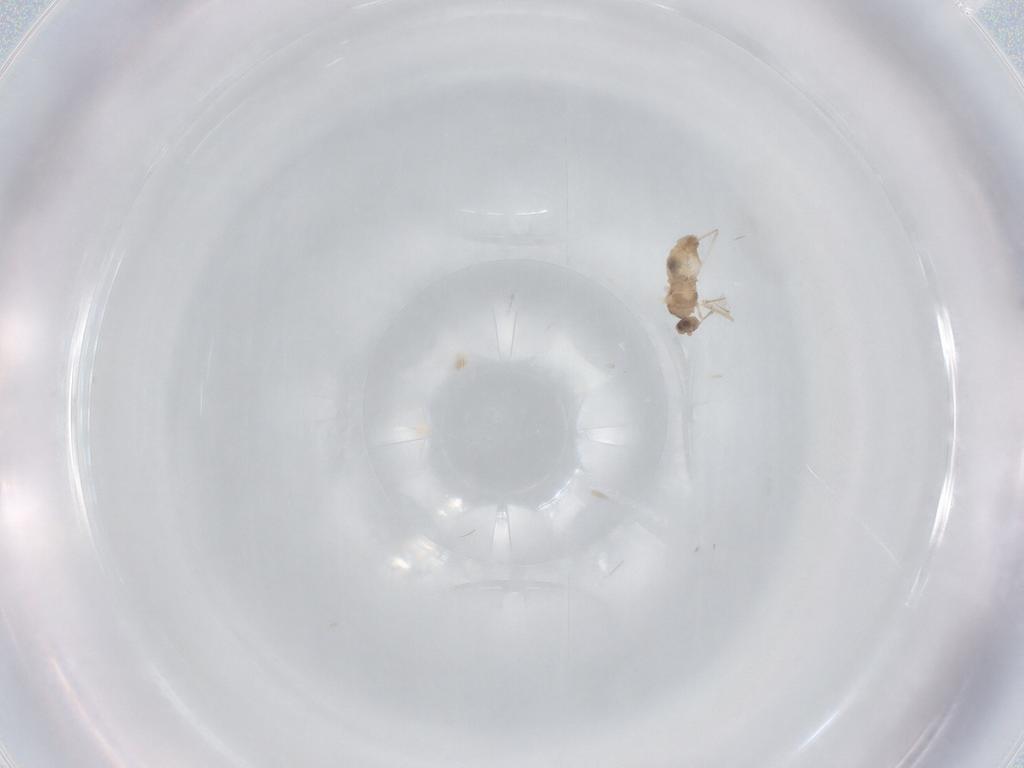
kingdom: Animalia
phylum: Arthropoda
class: Insecta
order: Diptera
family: Cecidomyiidae
